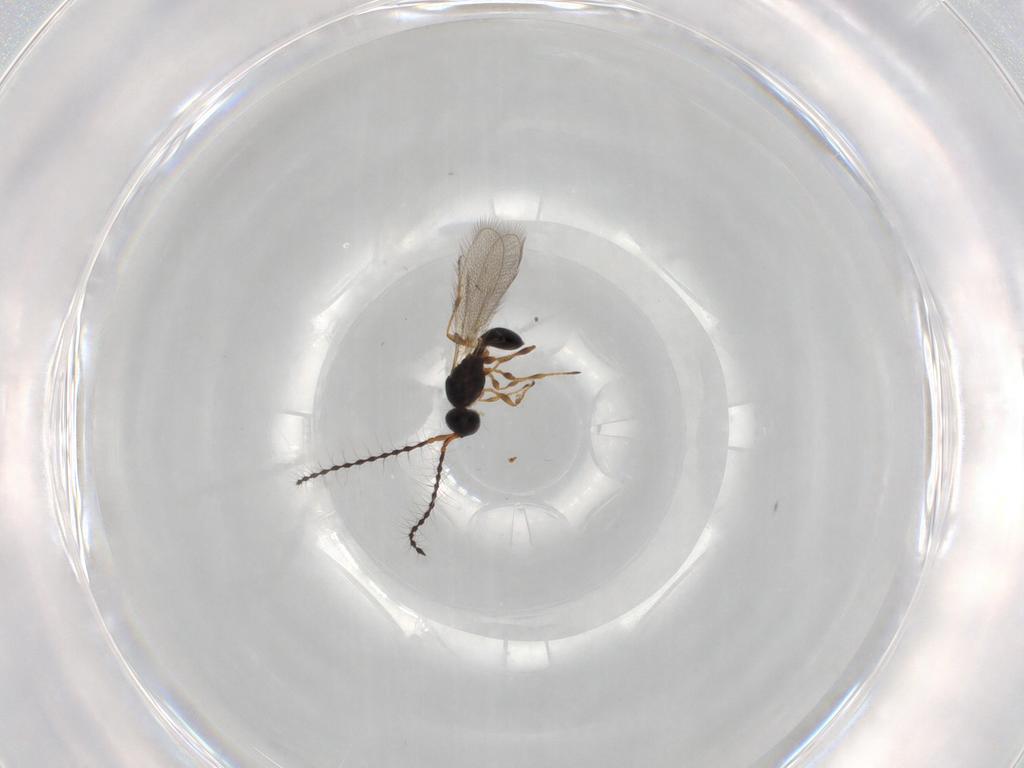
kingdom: Animalia
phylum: Arthropoda
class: Insecta
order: Hymenoptera
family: Diapriidae
